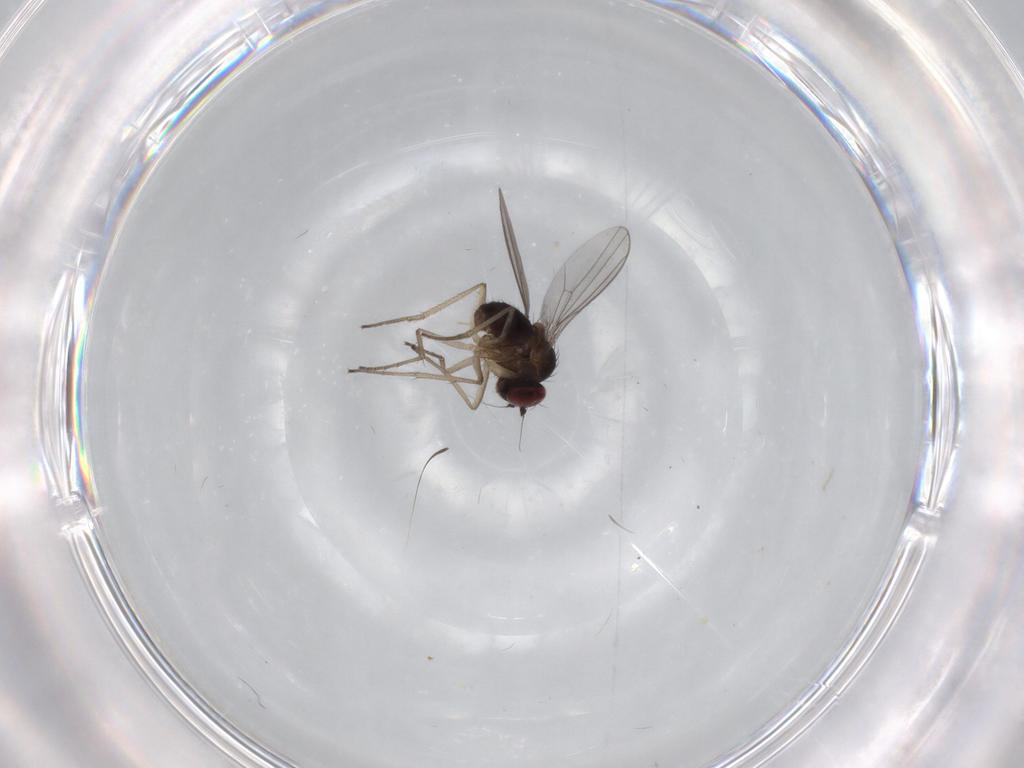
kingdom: Animalia
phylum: Arthropoda
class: Insecta
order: Diptera
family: Dolichopodidae
